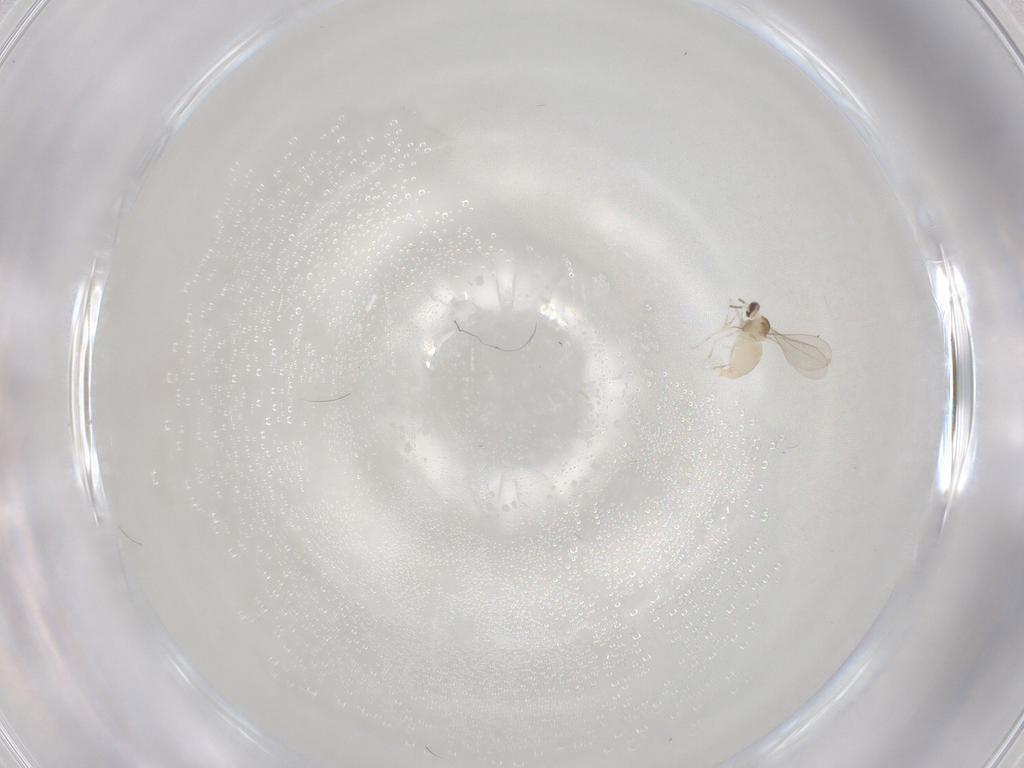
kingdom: Animalia
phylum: Arthropoda
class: Insecta
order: Diptera
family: Cecidomyiidae
